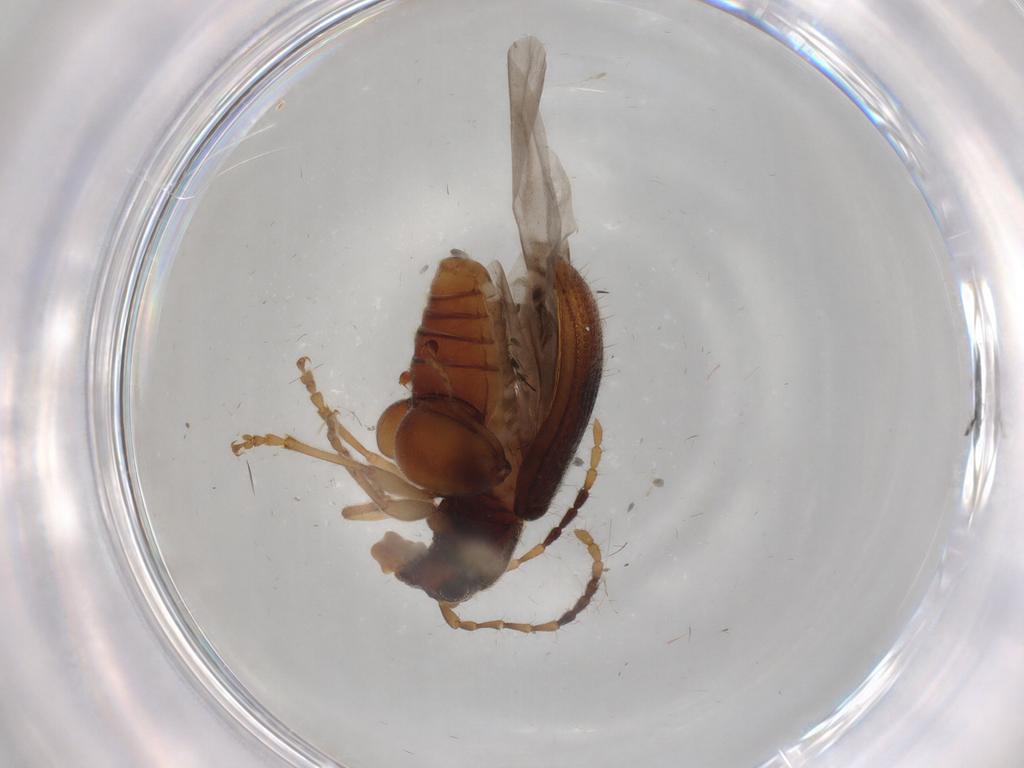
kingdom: Animalia
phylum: Arthropoda
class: Insecta
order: Coleoptera
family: Chrysomelidae
